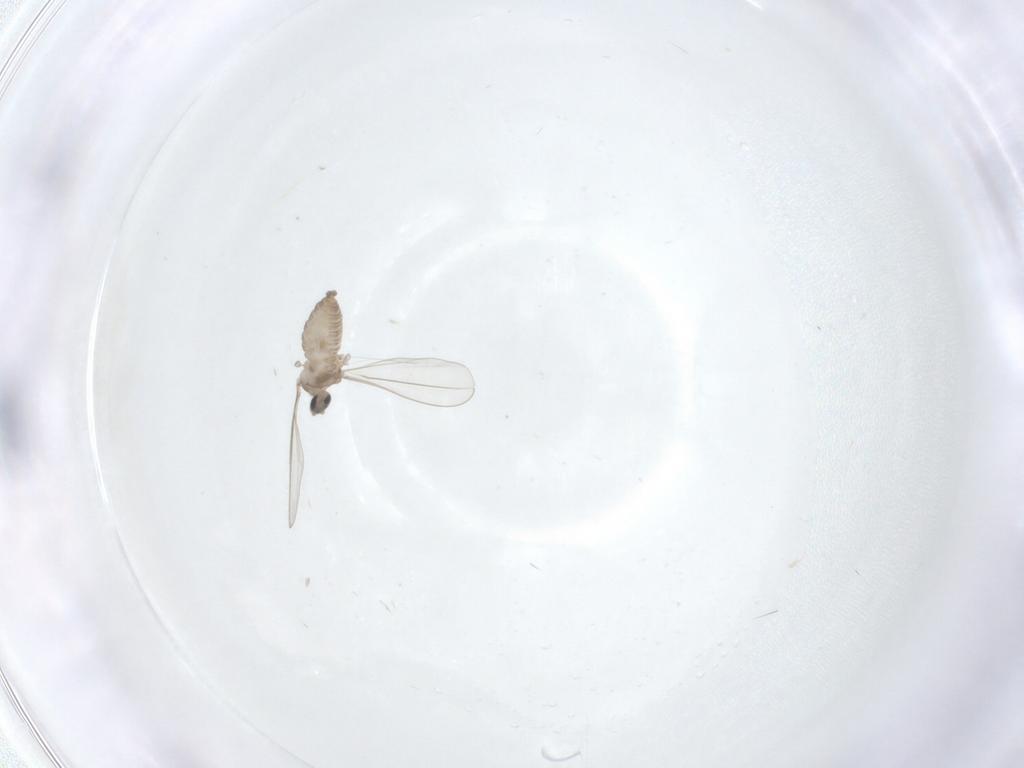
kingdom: Animalia
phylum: Arthropoda
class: Insecta
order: Diptera
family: Cecidomyiidae
